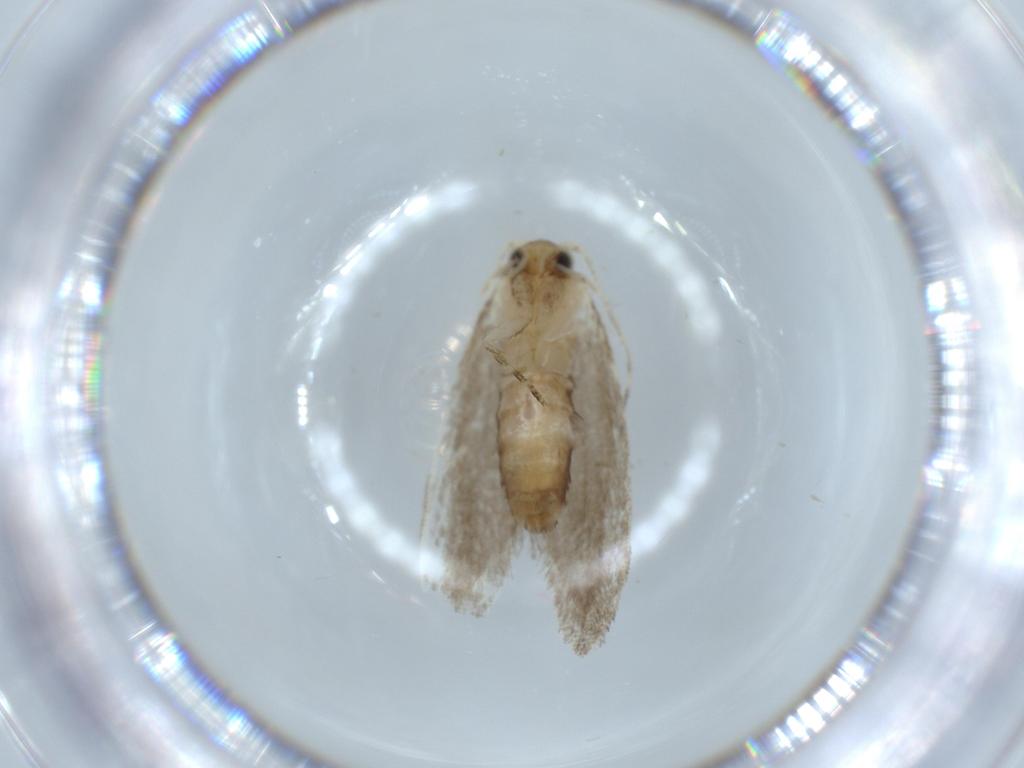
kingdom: Animalia
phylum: Arthropoda
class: Insecta
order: Lepidoptera
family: Tineidae
